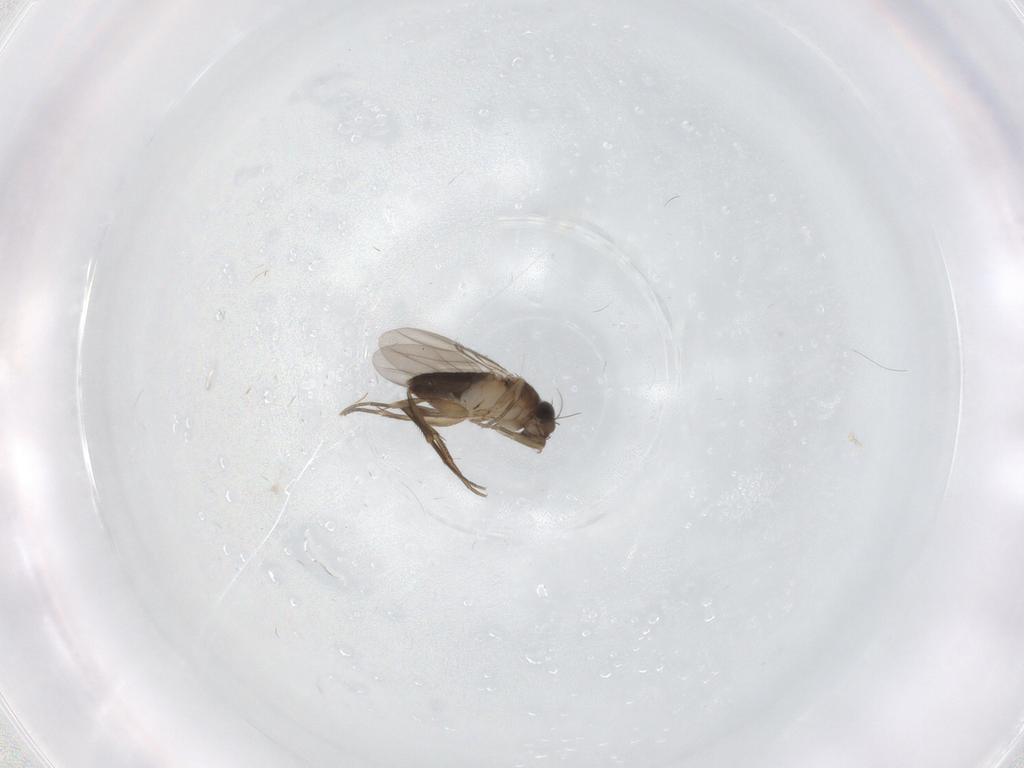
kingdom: Animalia
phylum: Arthropoda
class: Insecta
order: Diptera
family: Phoridae
